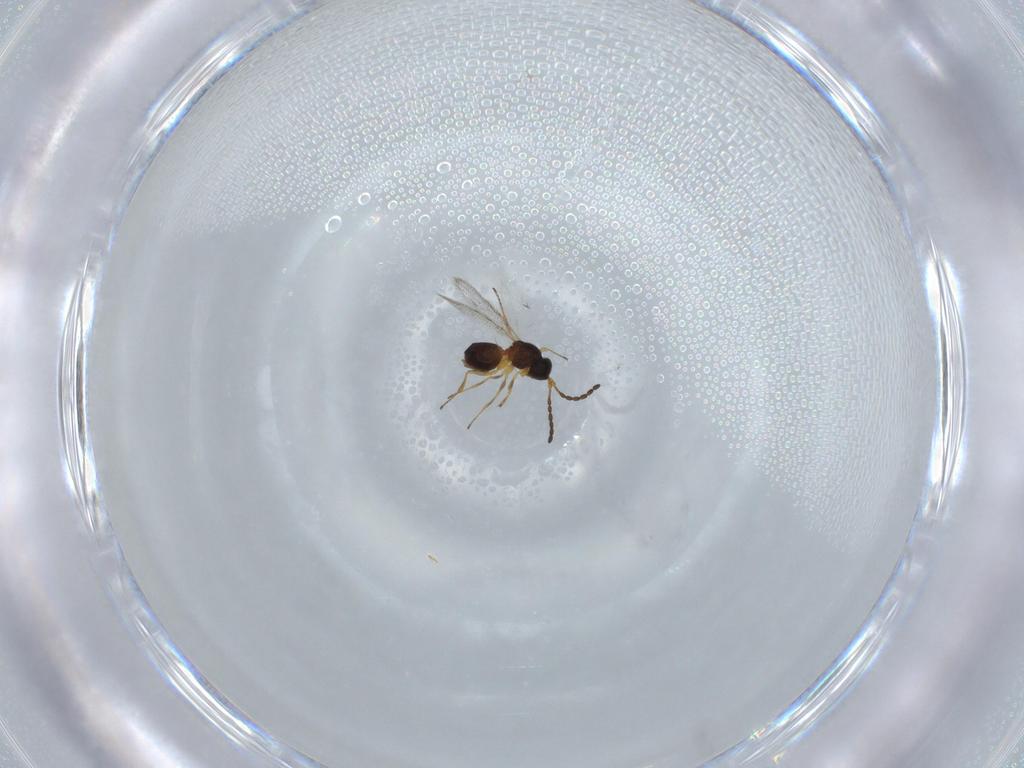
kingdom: Animalia
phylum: Arthropoda
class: Insecta
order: Hymenoptera
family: Figitidae
